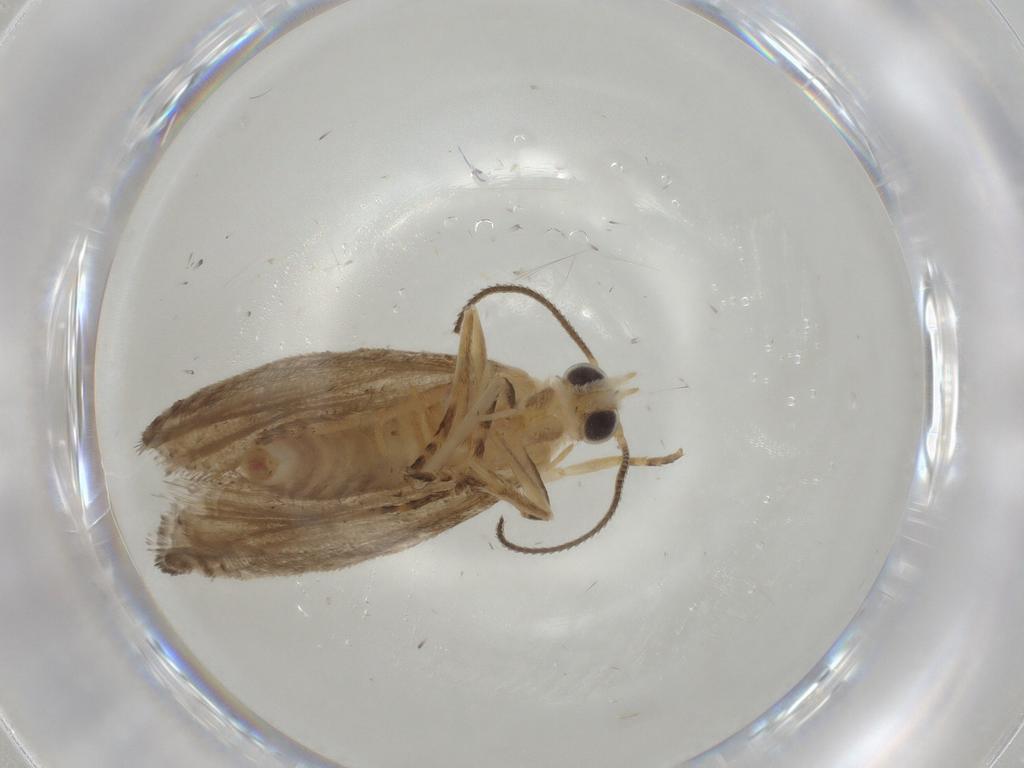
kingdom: Animalia
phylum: Arthropoda
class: Insecta
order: Lepidoptera
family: Tortricidae
